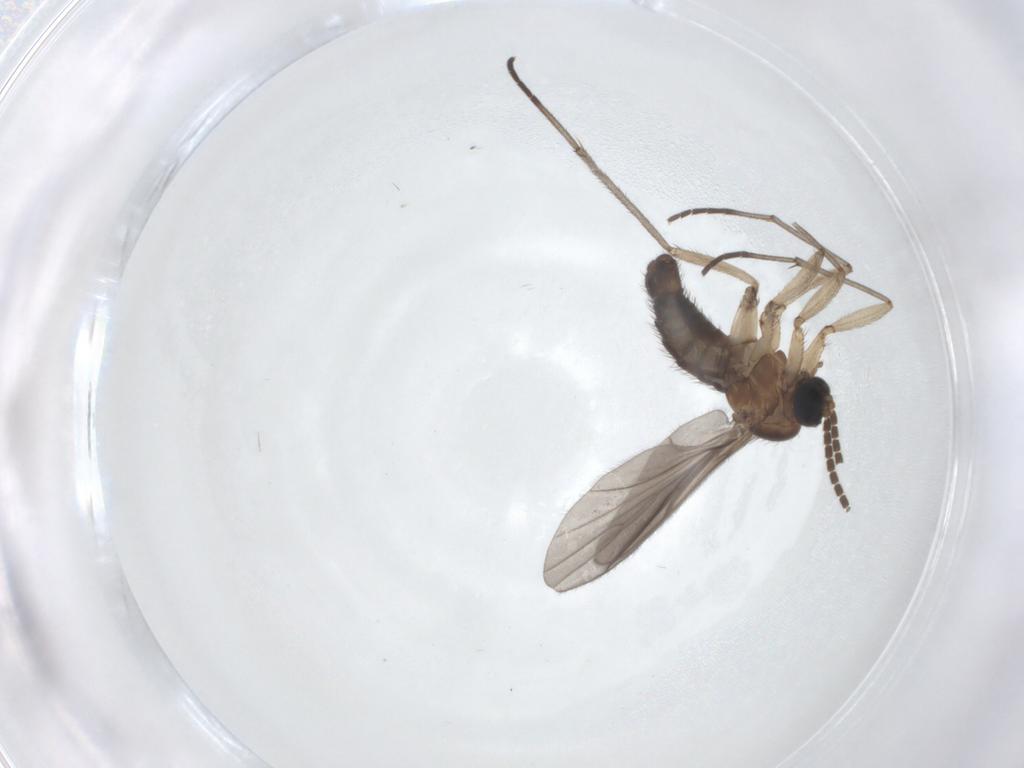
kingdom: Animalia
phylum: Arthropoda
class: Insecta
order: Diptera
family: Sciaridae
